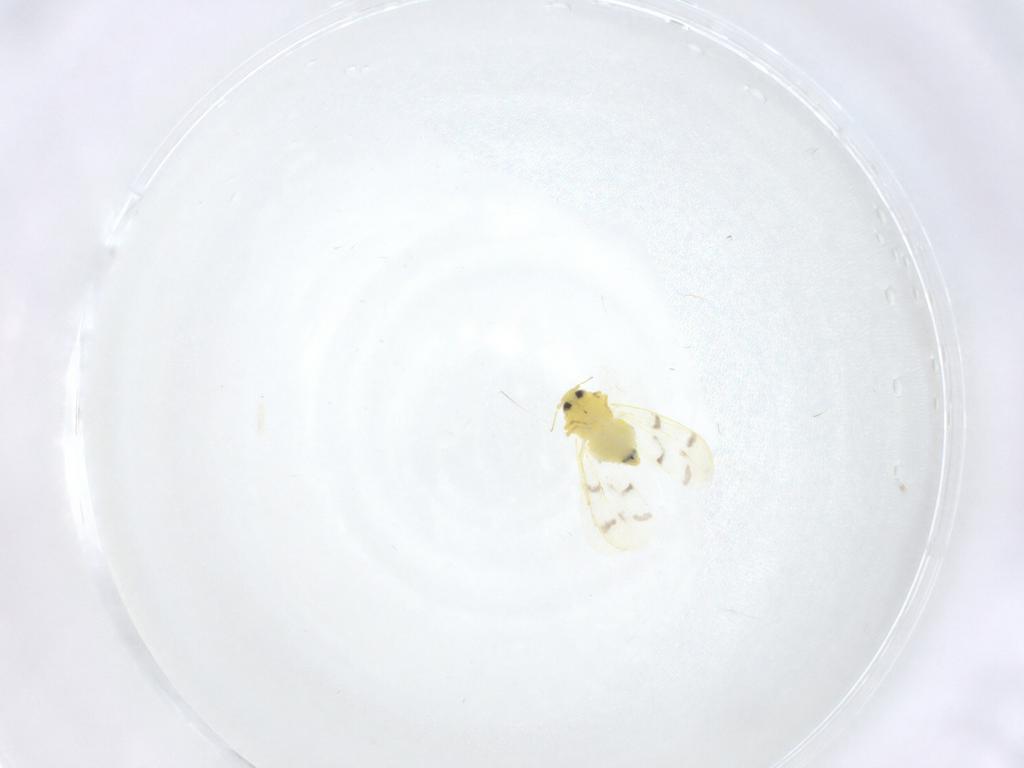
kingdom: Animalia
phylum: Arthropoda
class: Insecta
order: Hemiptera
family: Aleyrodidae
